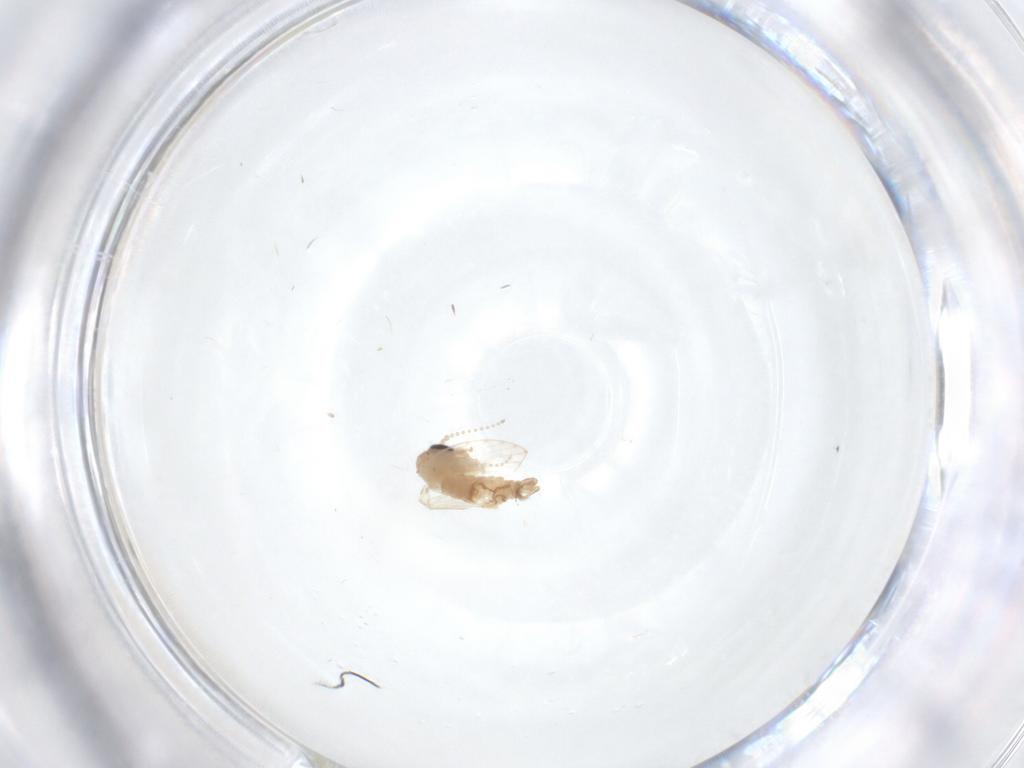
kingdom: Animalia
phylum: Arthropoda
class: Insecta
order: Diptera
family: Psychodidae
